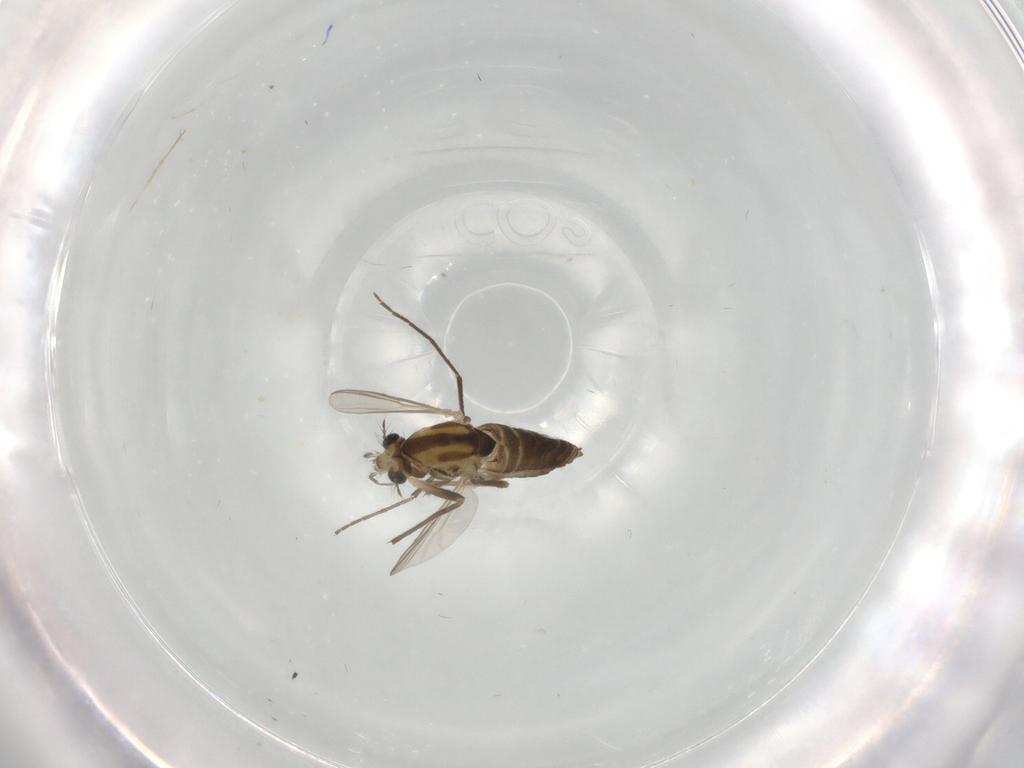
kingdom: Animalia
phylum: Arthropoda
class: Insecta
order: Diptera
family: Chironomidae
